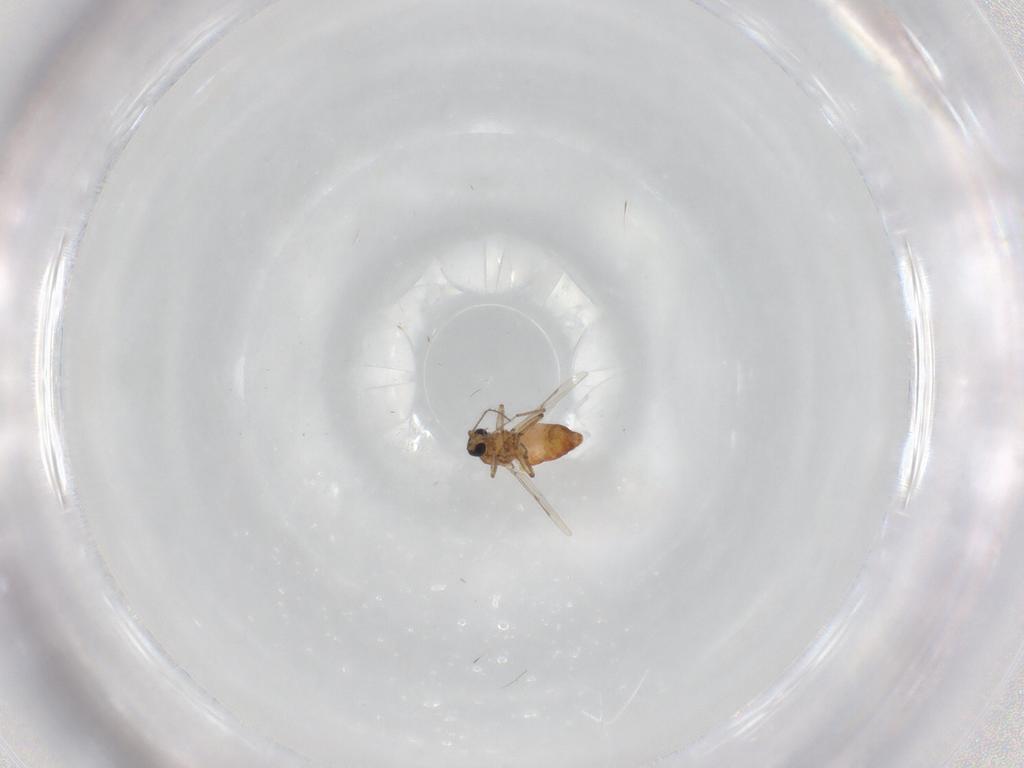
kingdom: Animalia
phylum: Arthropoda
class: Insecta
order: Diptera
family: Ceratopogonidae
